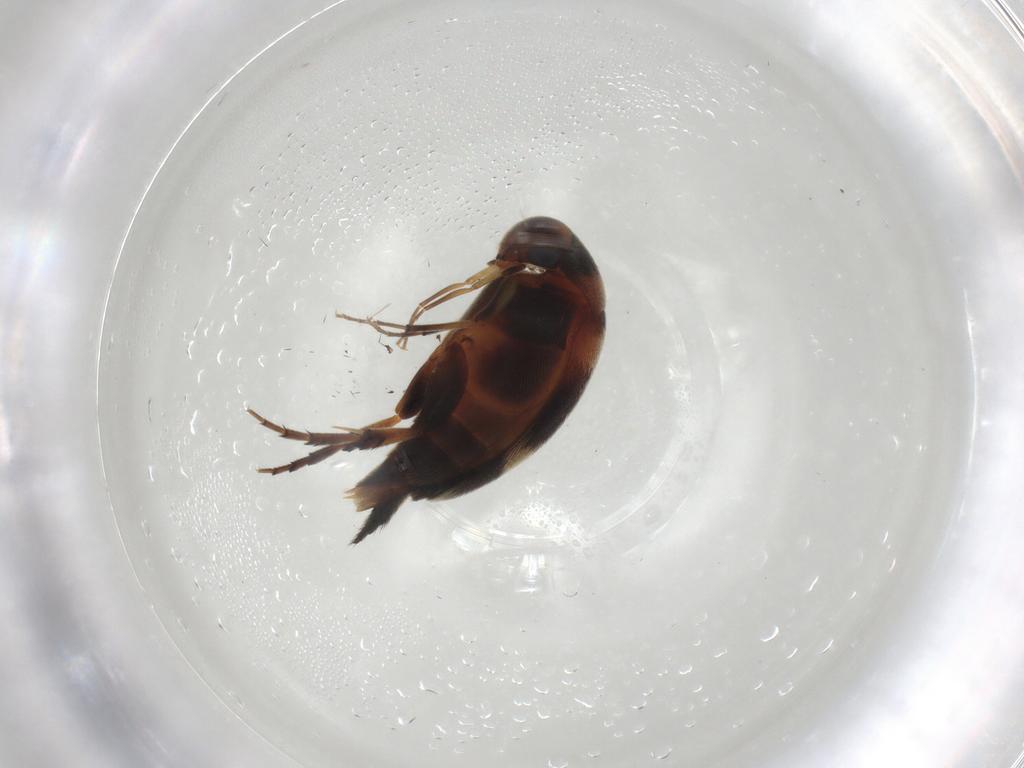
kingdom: Animalia
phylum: Arthropoda
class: Insecta
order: Coleoptera
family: Mordellidae
